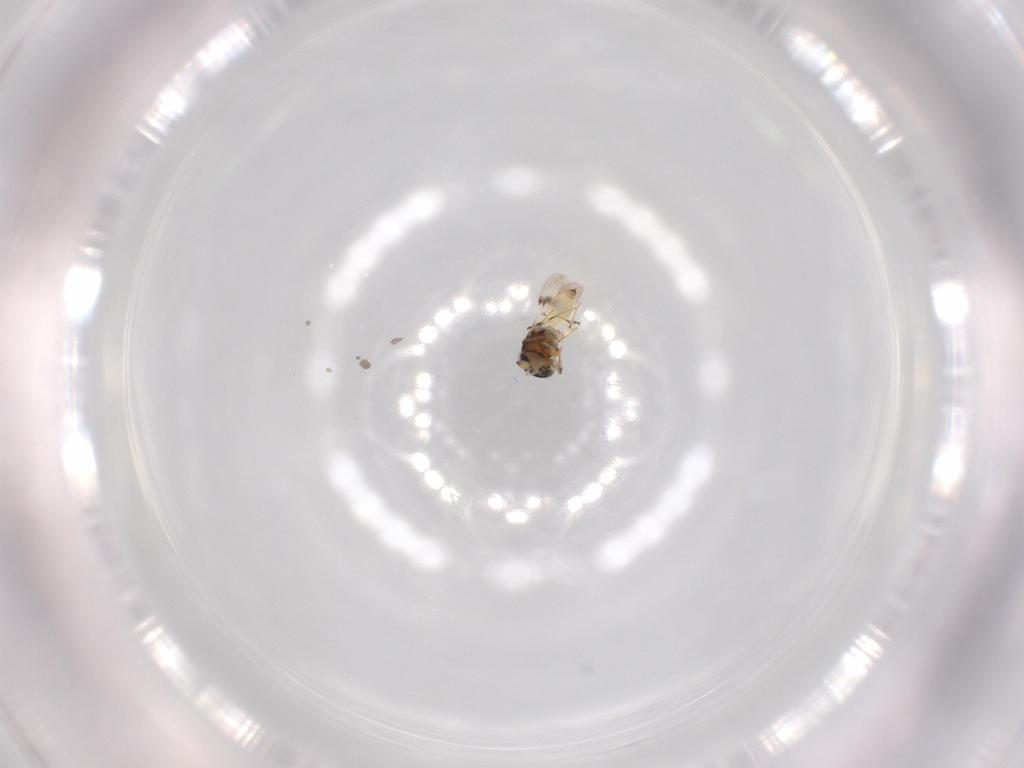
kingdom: Animalia
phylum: Arthropoda
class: Insecta
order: Hymenoptera
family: Scelionidae
